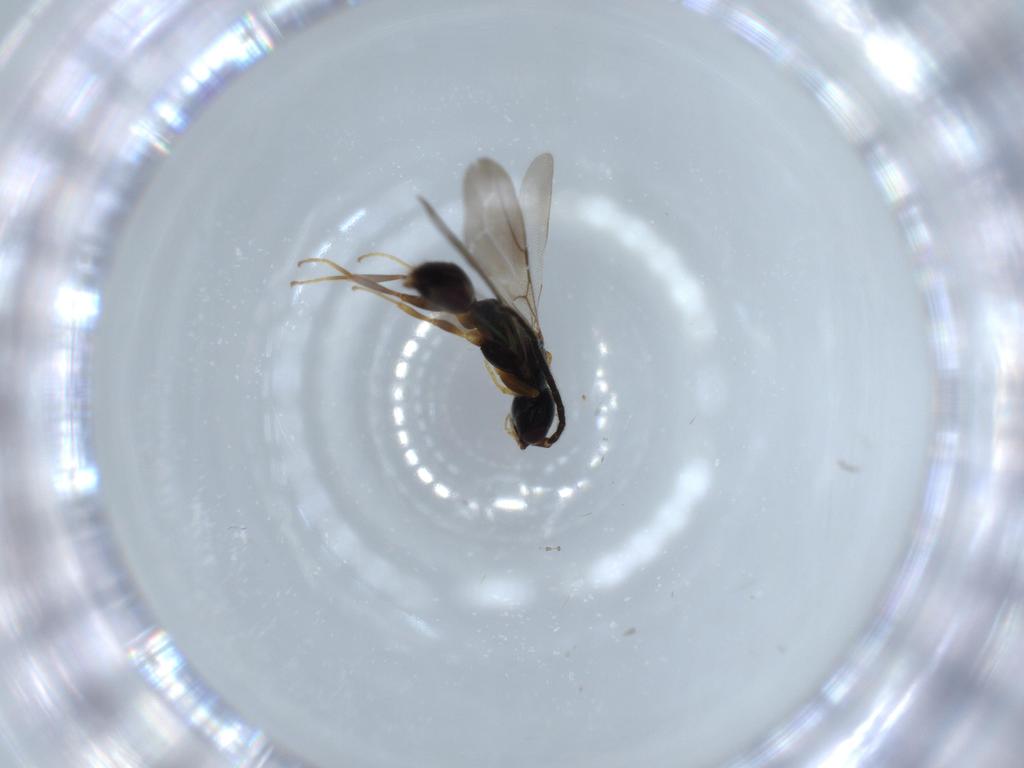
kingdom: Animalia
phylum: Arthropoda
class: Insecta
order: Hymenoptera
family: Bethylidae
